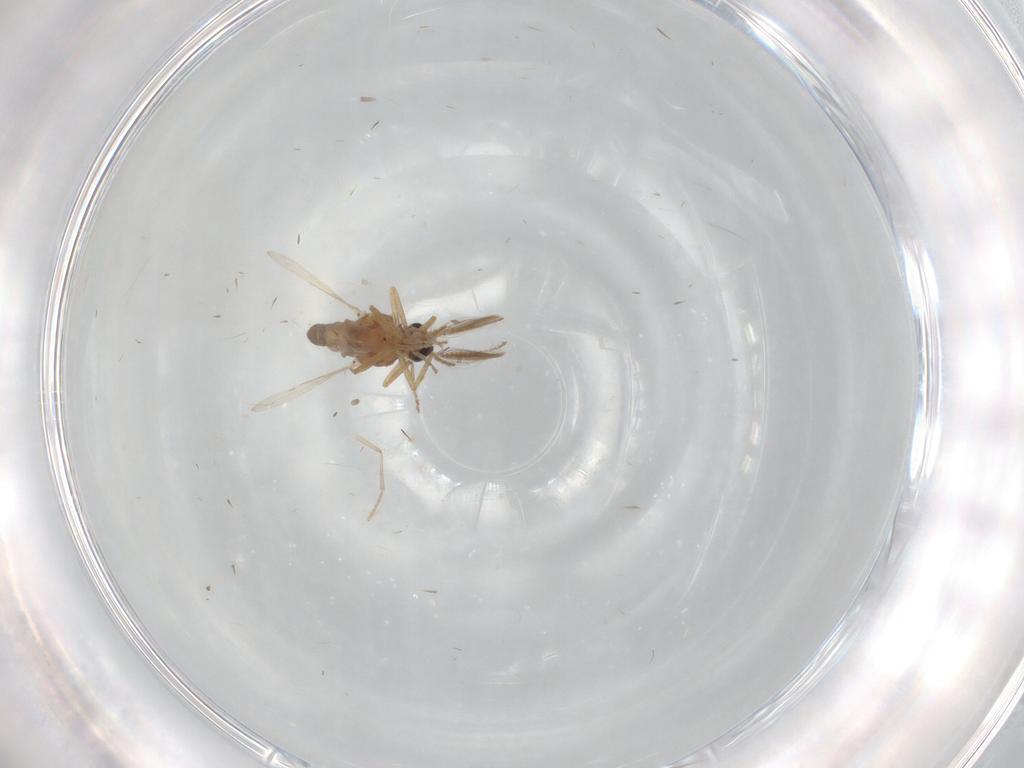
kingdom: Animalia
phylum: Arthropoda
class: Insecta
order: Diptera
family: Ceratopogonidae
